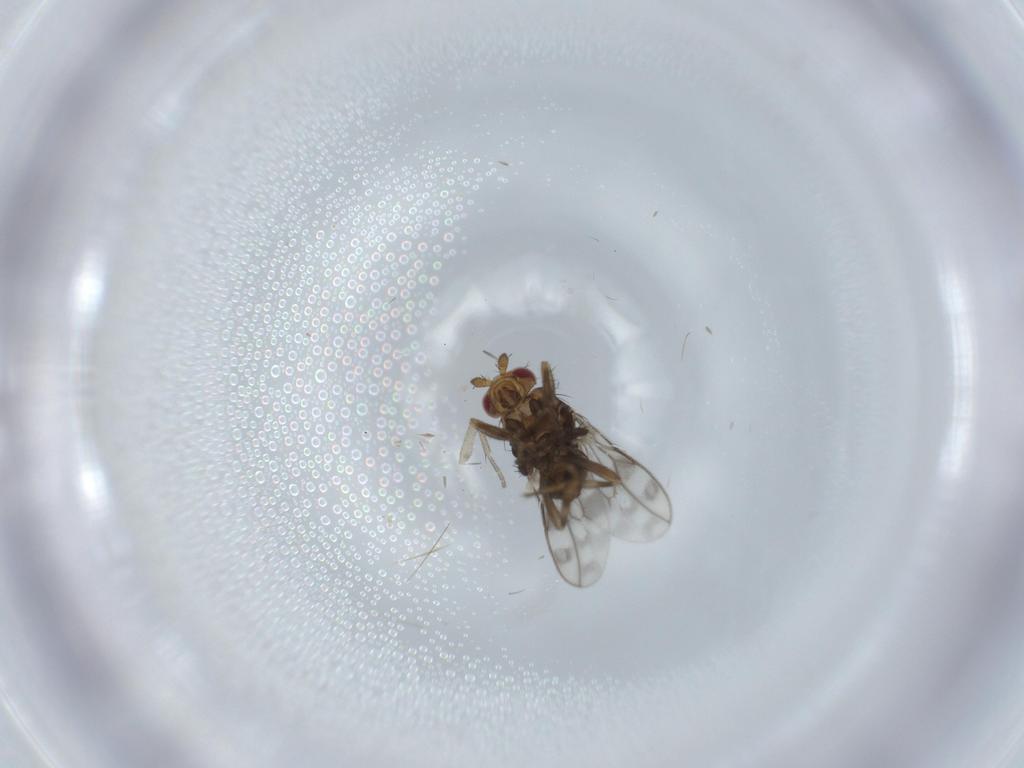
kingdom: Animalia
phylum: Arthropoda
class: Insecta
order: Diptera
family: Sphaeroceridae
